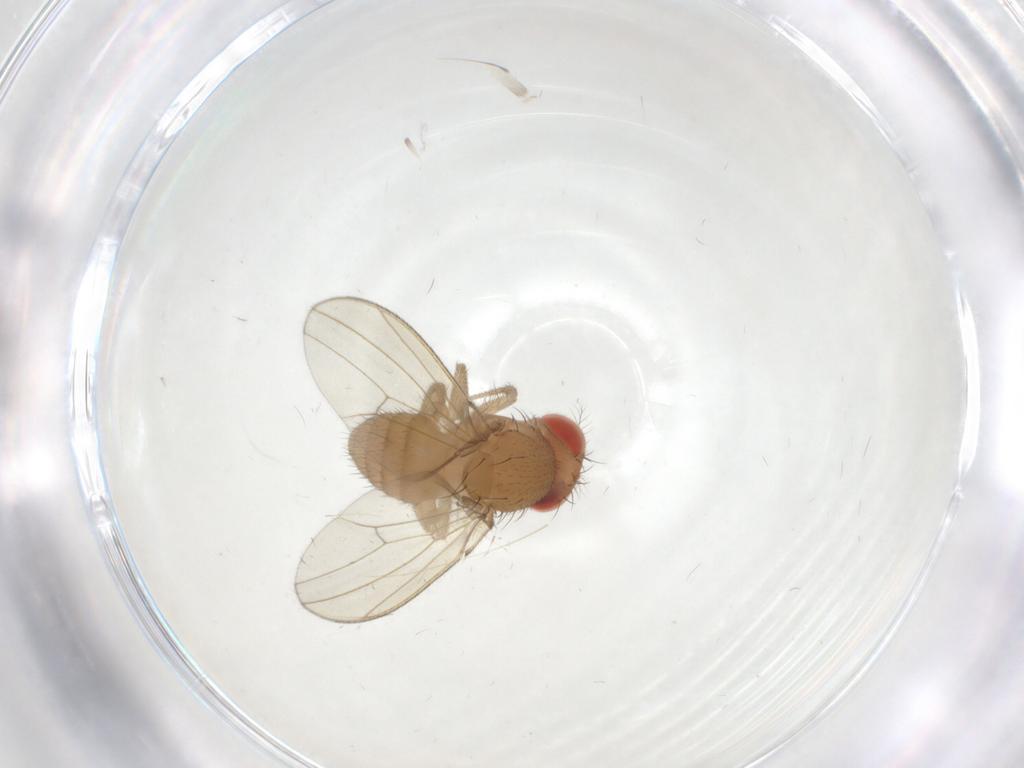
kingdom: Animalia
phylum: Arthropoda
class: Insecta
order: Diptera
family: Drosophilidae
